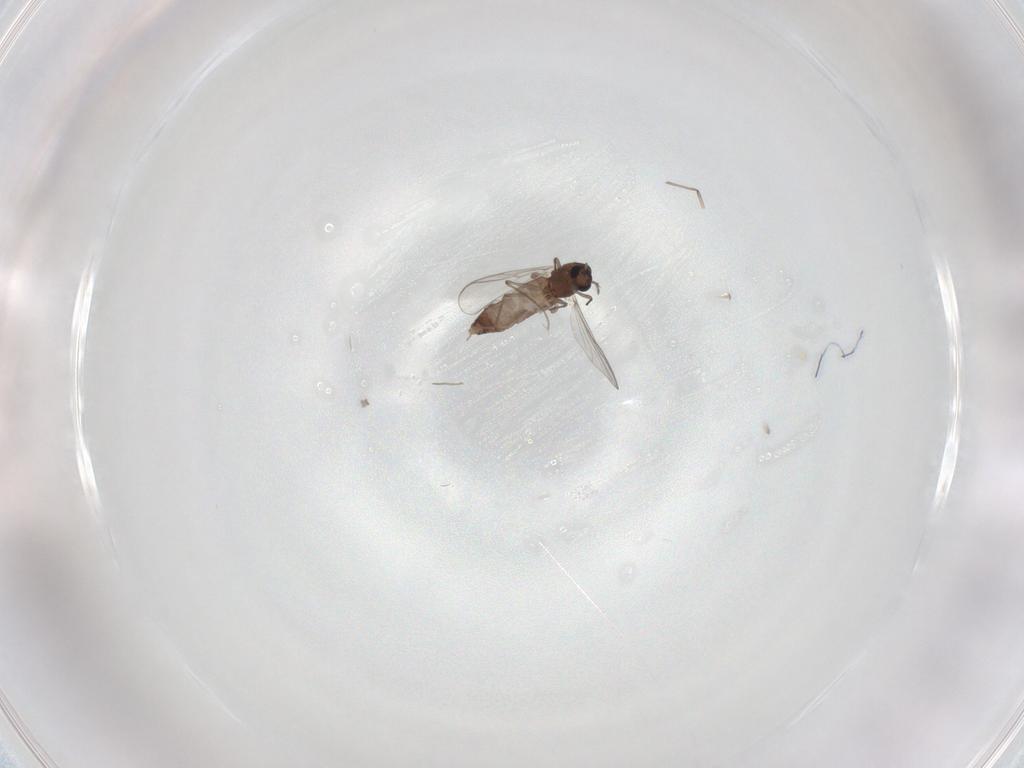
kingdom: Animalia
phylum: Arthropoda
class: Insecta
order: Diptera
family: Chironomidae
